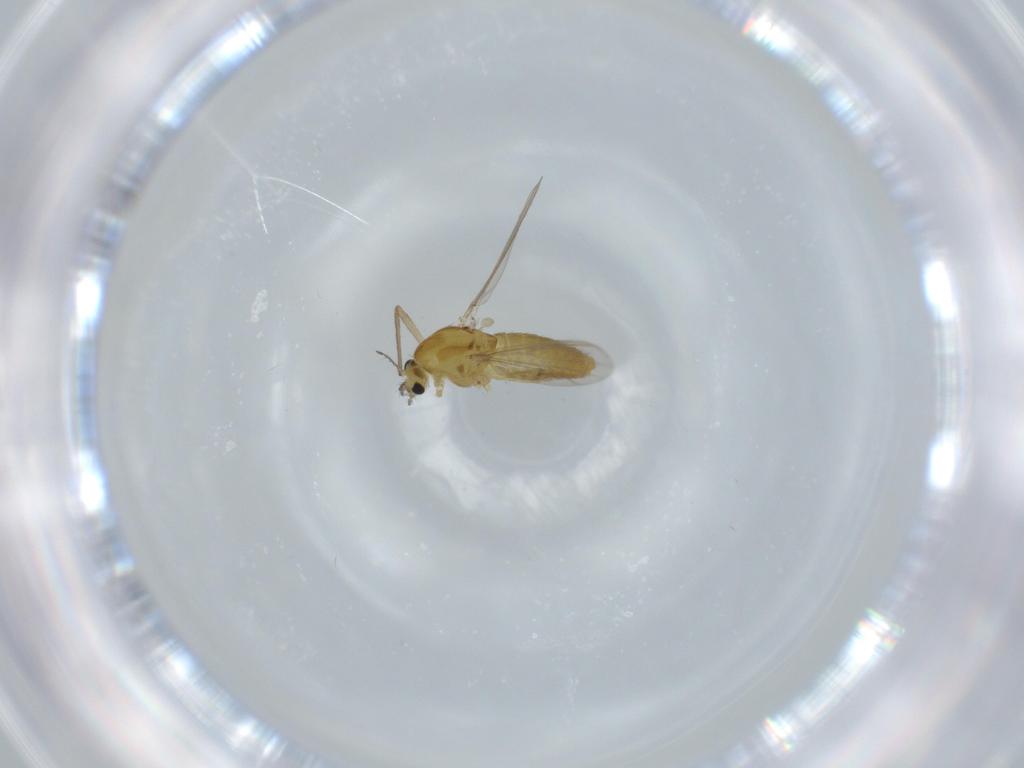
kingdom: Animalia
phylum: Arthropoda
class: Insecta
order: Diptera
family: Chironomidae
